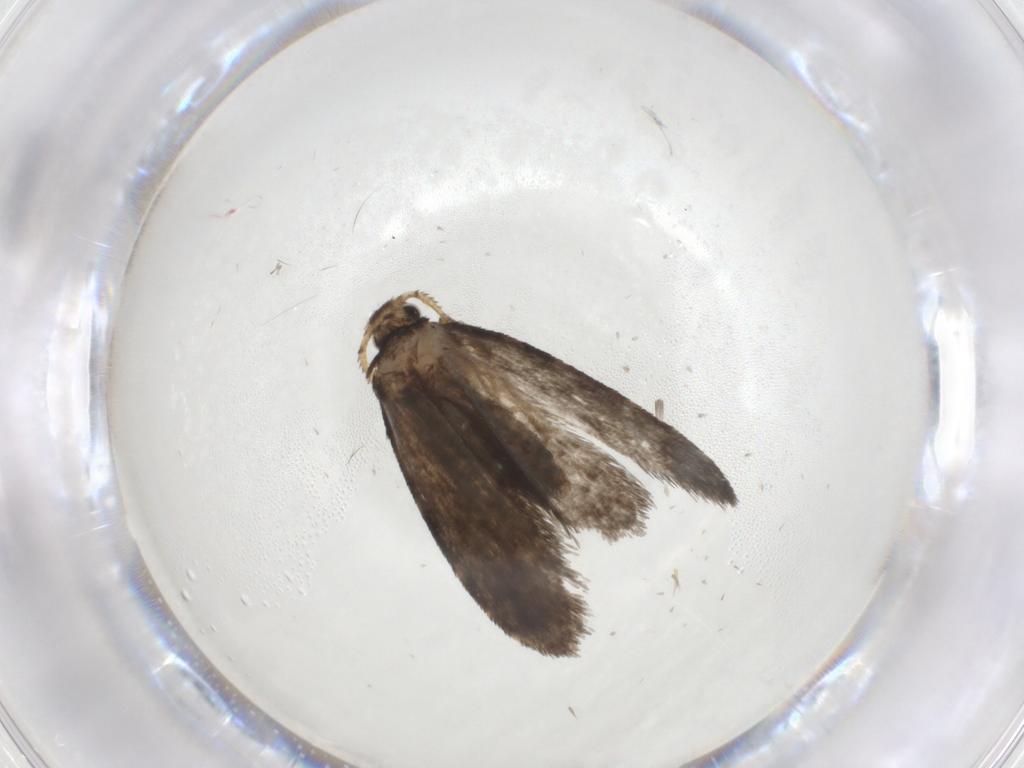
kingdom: Animalia
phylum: Arthropoda
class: Insecta
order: Lepidoptera
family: Psychidae
